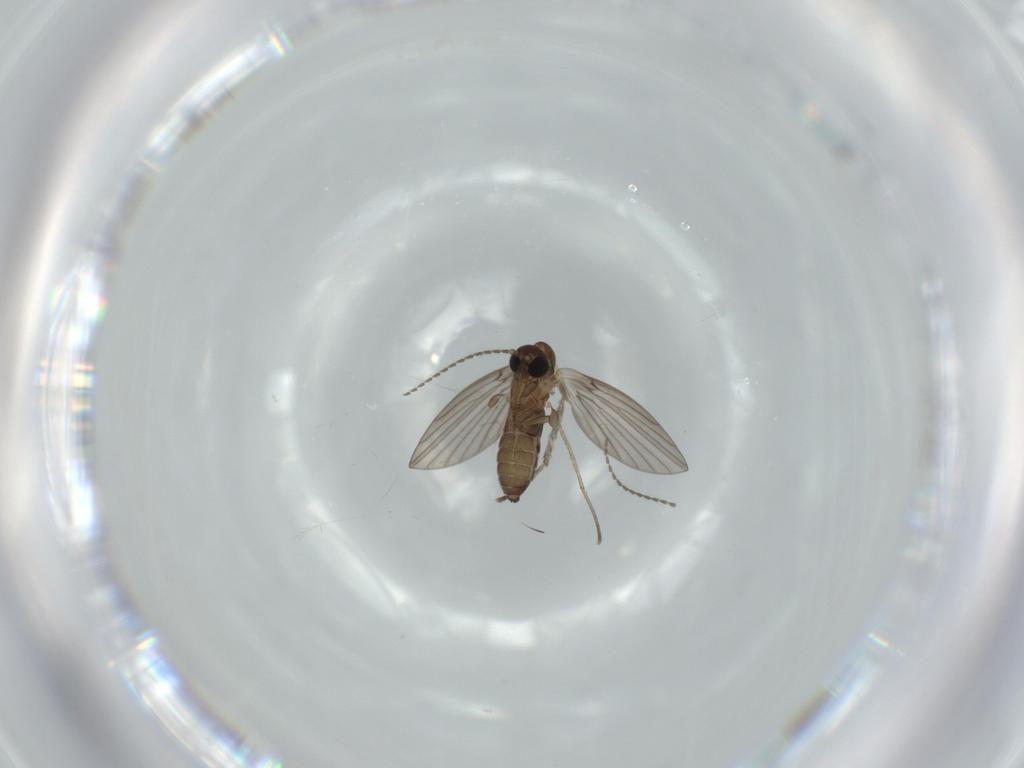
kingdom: Animalia
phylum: Arthropoda
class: Insecta
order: Diptera
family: Psychodidae
